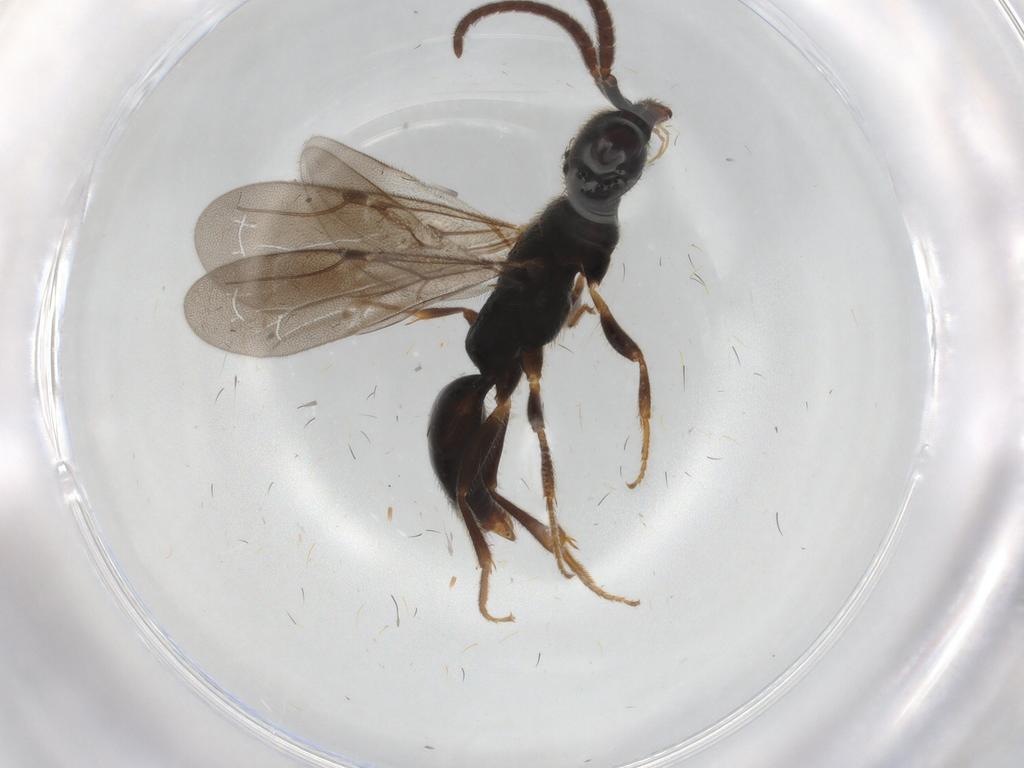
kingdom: Animalia
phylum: Arthropoda
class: Insecta
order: Hymenoptera
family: Bethylidae
